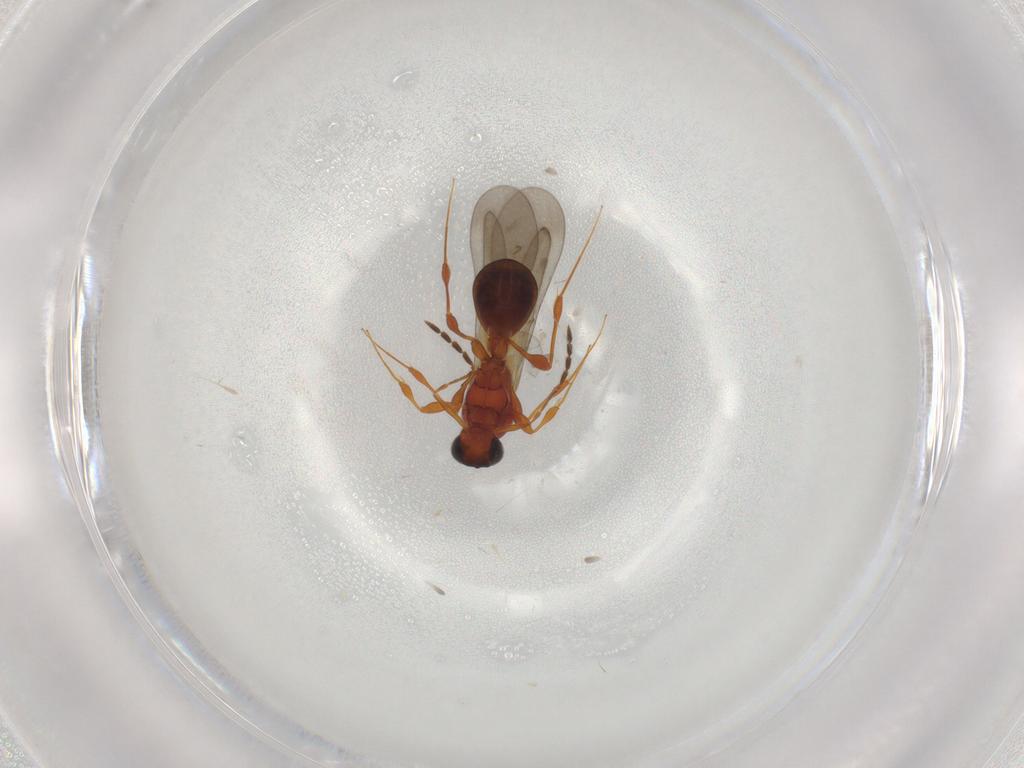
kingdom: Animalia
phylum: Arthropoda
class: Insecta
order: Hymenoptera
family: Platygastridae
